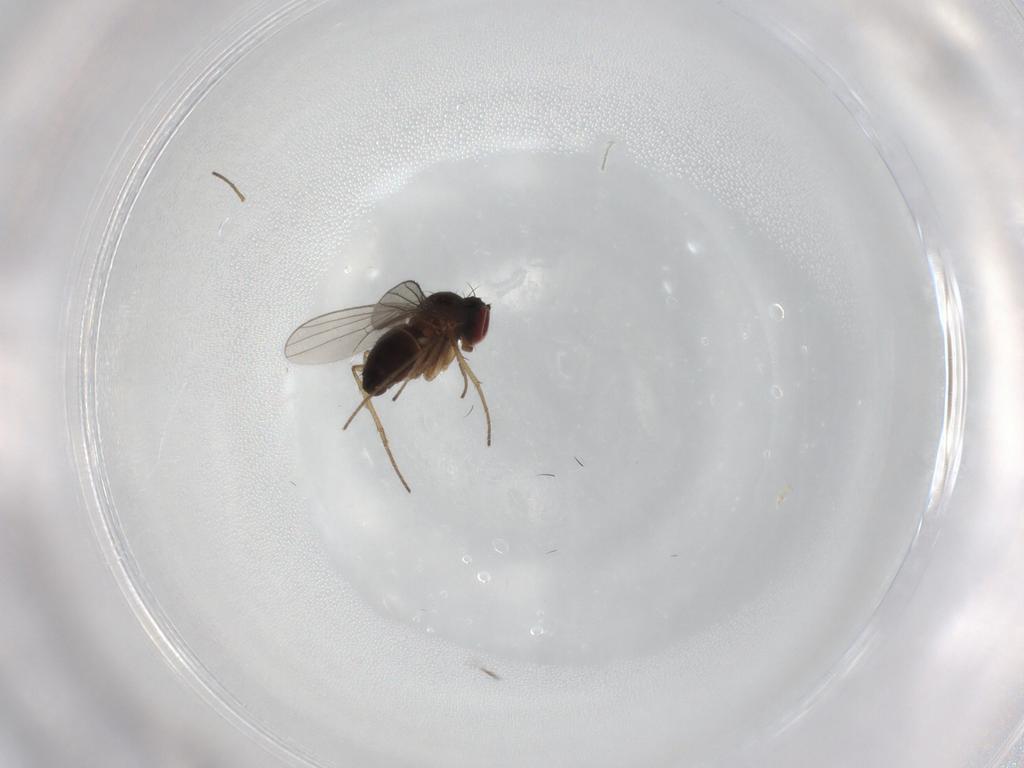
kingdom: Animalia
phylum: Arthropoda
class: Insecta
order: Diptera
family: Dolichopodidae
